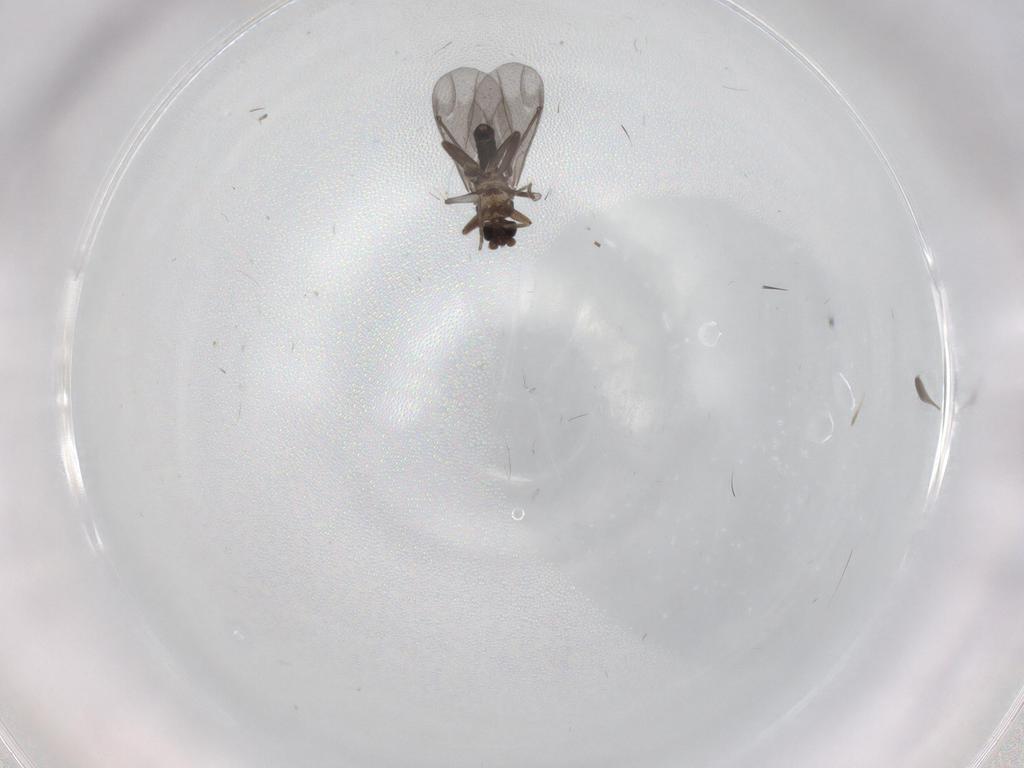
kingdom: Animalia
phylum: Arthropoda
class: Insecta
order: Diptera
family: Phoridae
